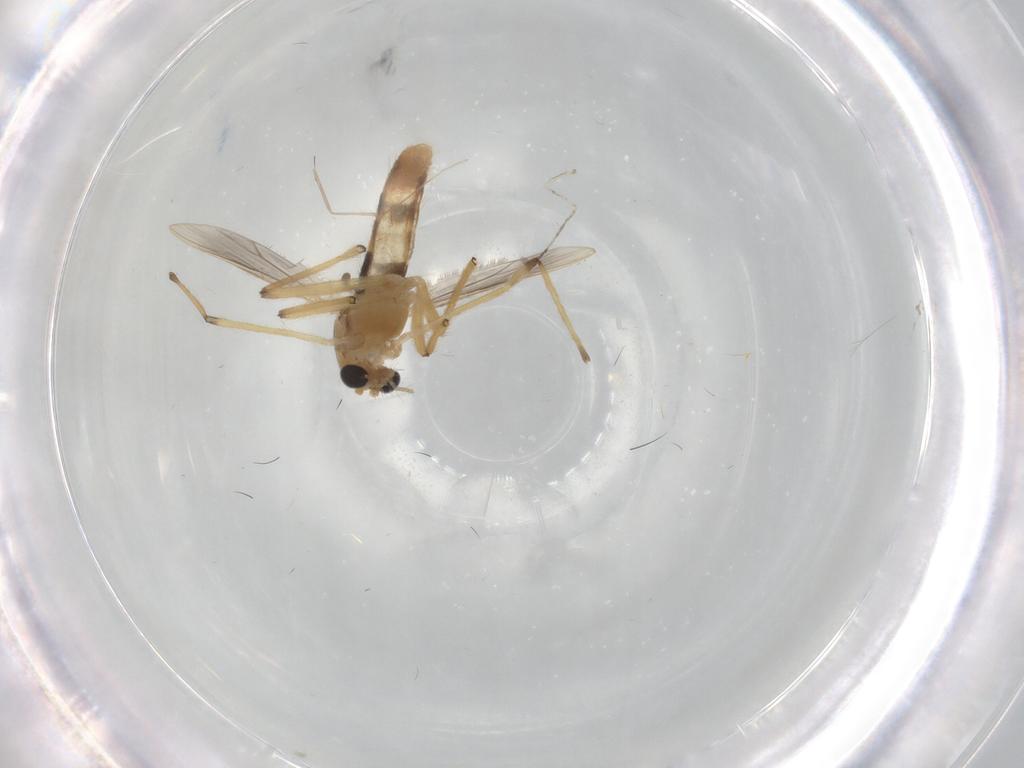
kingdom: Animalia
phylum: Arthropoda
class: Insecta
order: Diptera
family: Chironomidae
